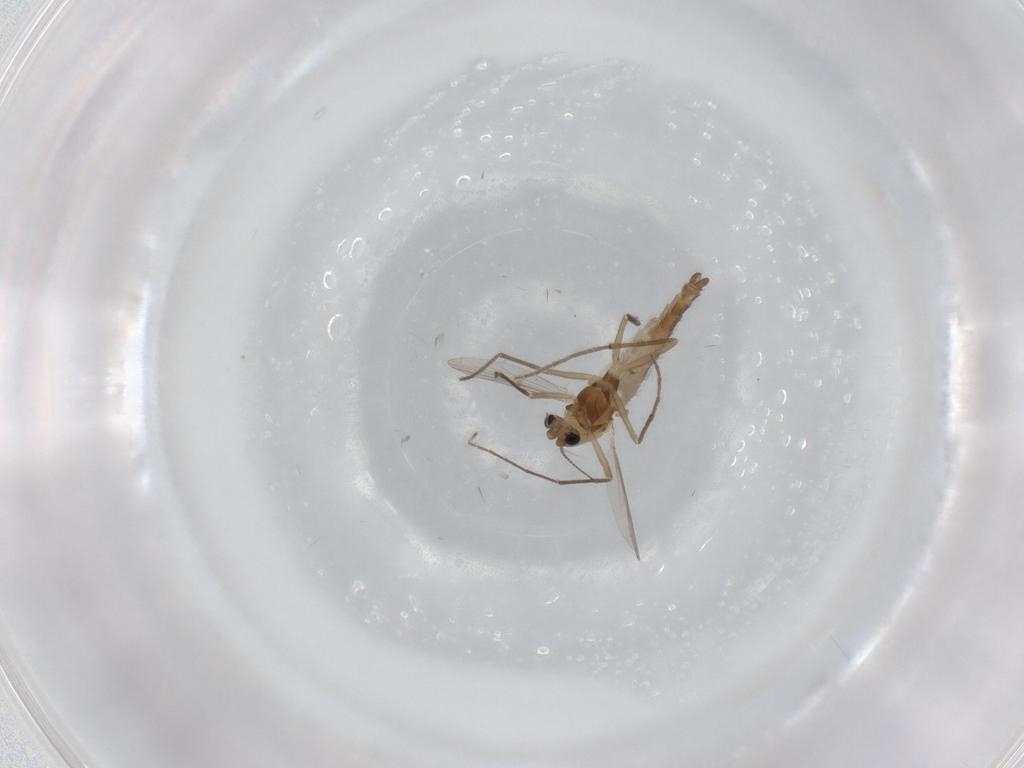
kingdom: Animalia
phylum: Arthropoda
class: Insecta
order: Diptera
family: Chironomidae
